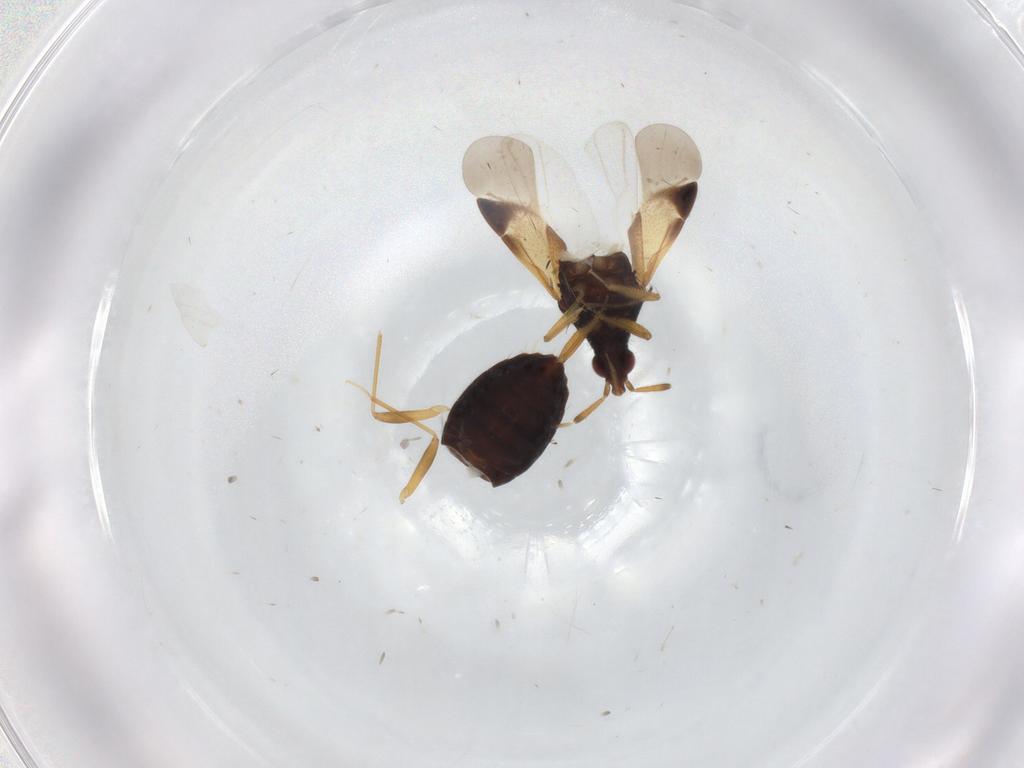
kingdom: Animalia
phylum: Arthropoda
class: Insecta
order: Hemiptera
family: Anthocoridae
